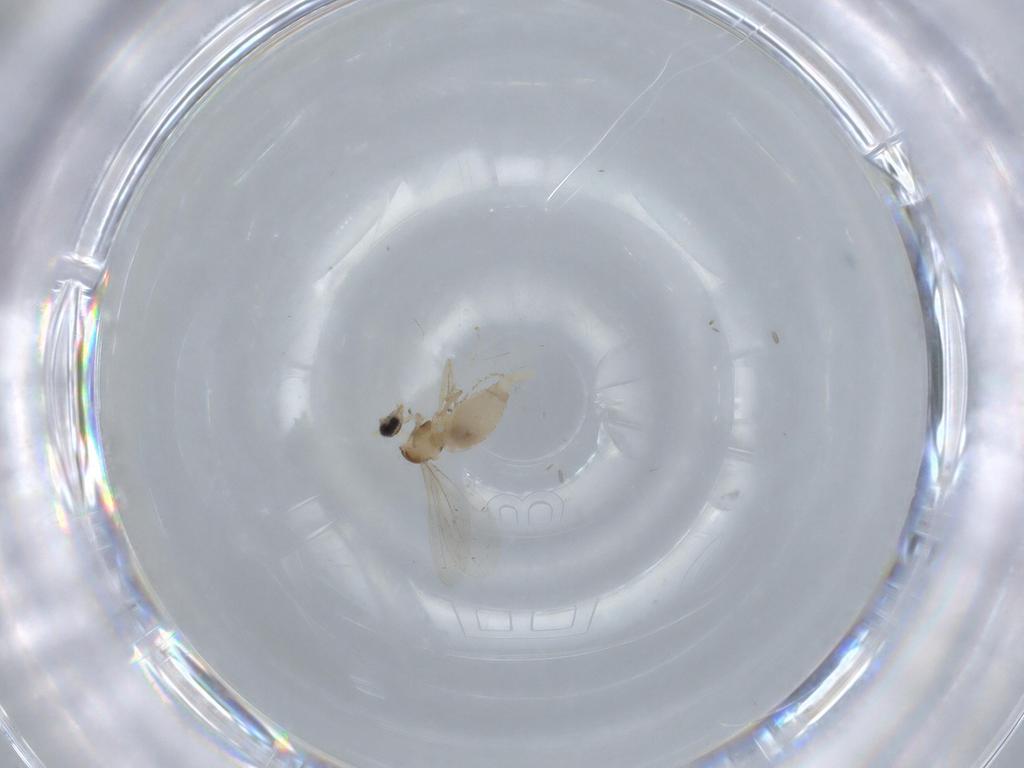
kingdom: Animalia
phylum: Arthropoda
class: Insecta
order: Diptera
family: Cecidomyiidae
